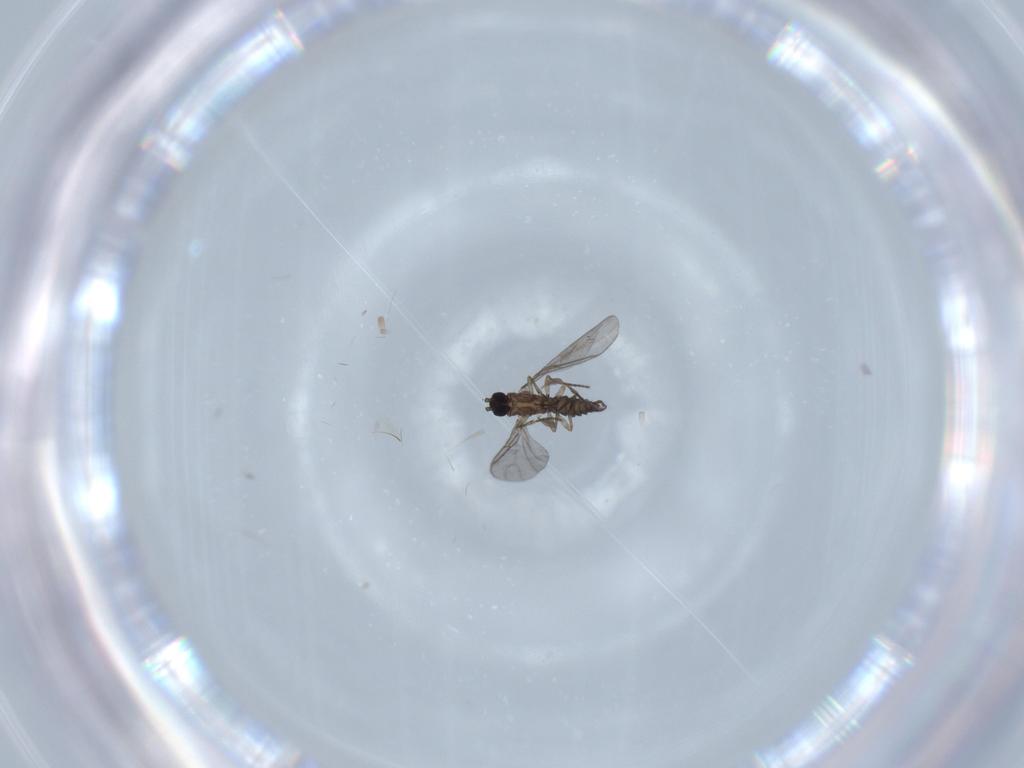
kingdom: Animalia
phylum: Arthropoda
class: Insecta
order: Diptera
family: Sciaridae
